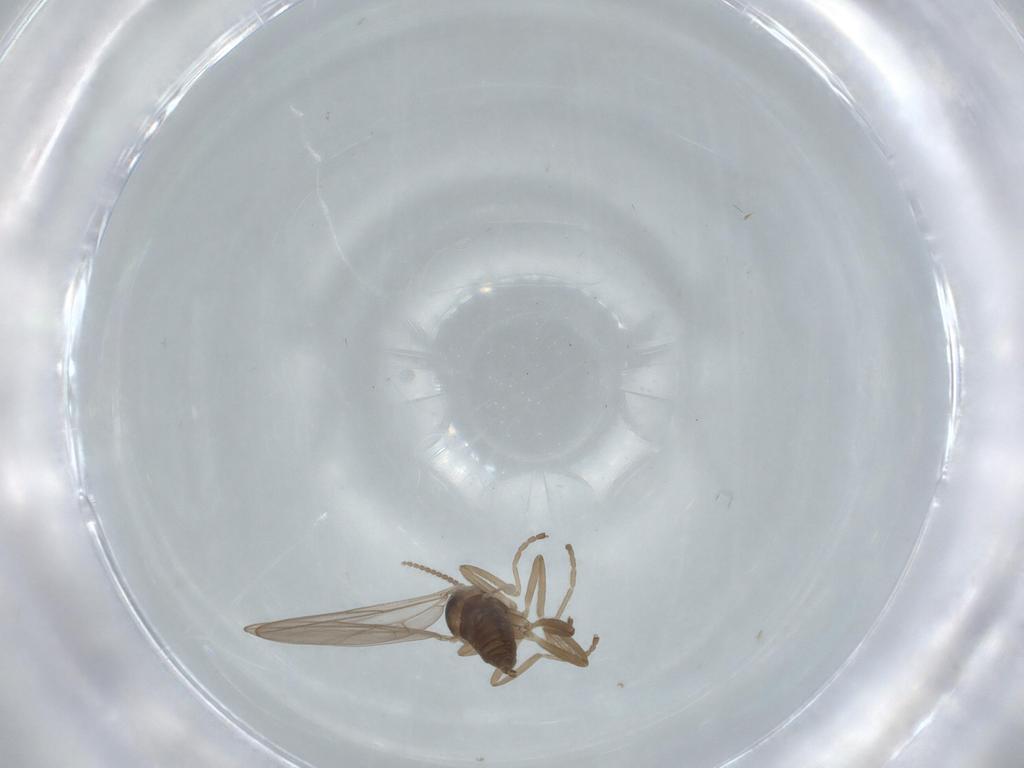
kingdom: Animalia
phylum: Arthropoda
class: Insecta
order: Diptera
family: Cecidomyiidae
